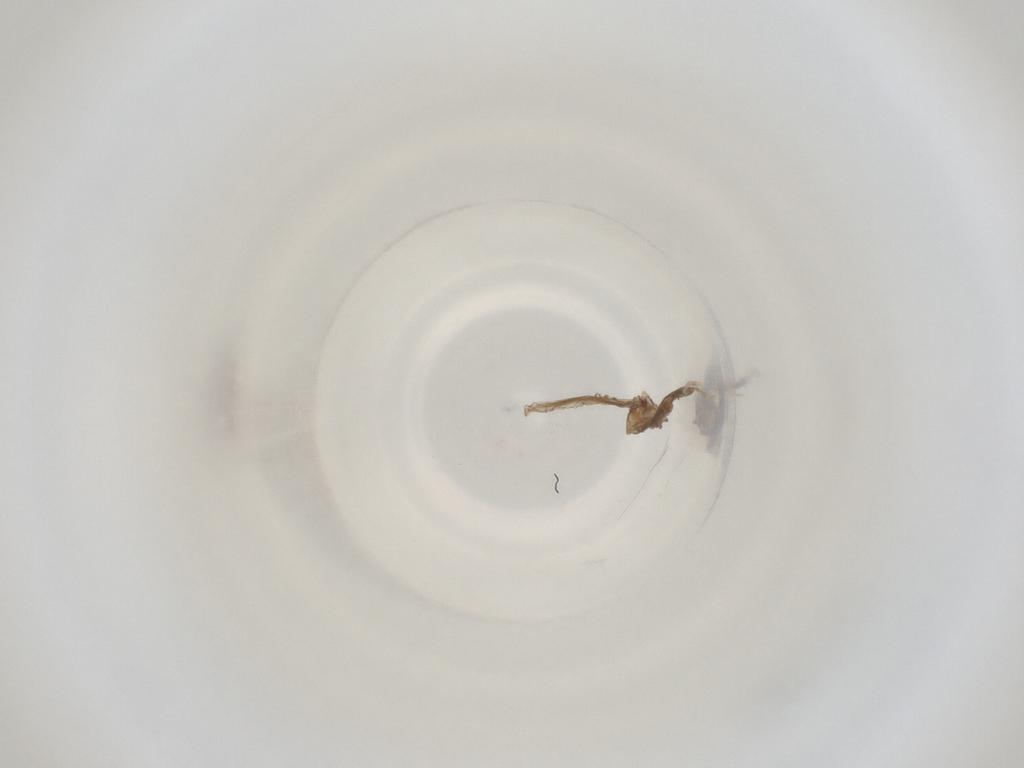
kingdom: Animalia
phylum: Arthropoda
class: Insecta
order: Diptera
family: Cecidomyiidae
